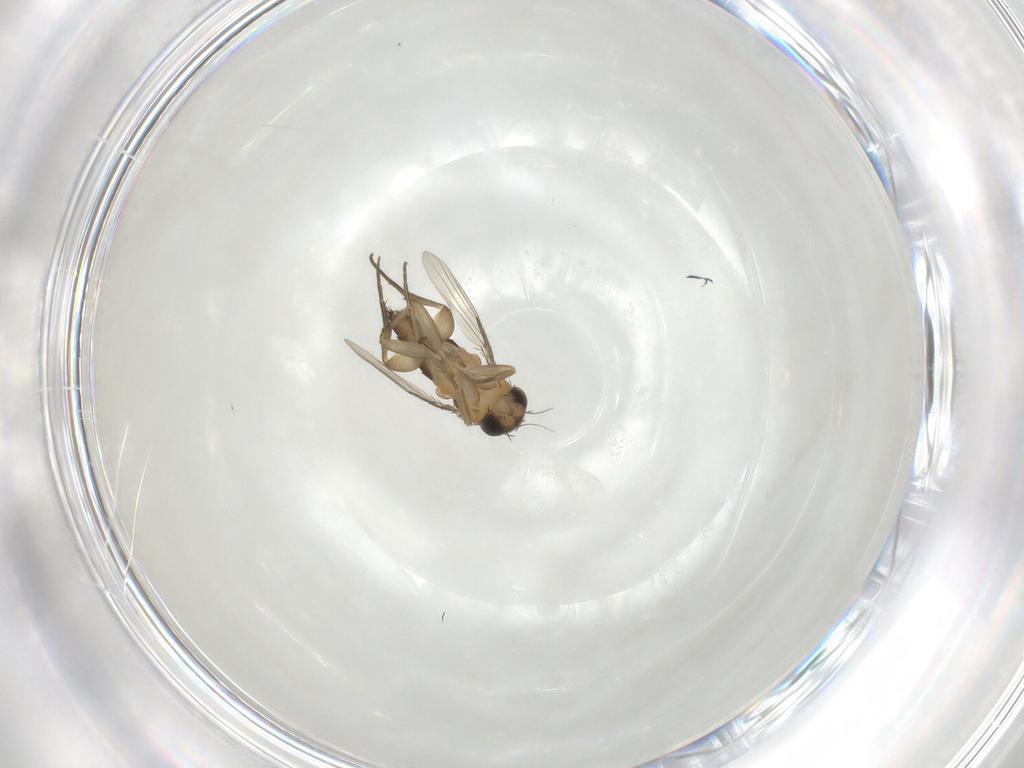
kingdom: Animalia
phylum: Arthropoda
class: Insecta
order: Diptera
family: Phoridae
